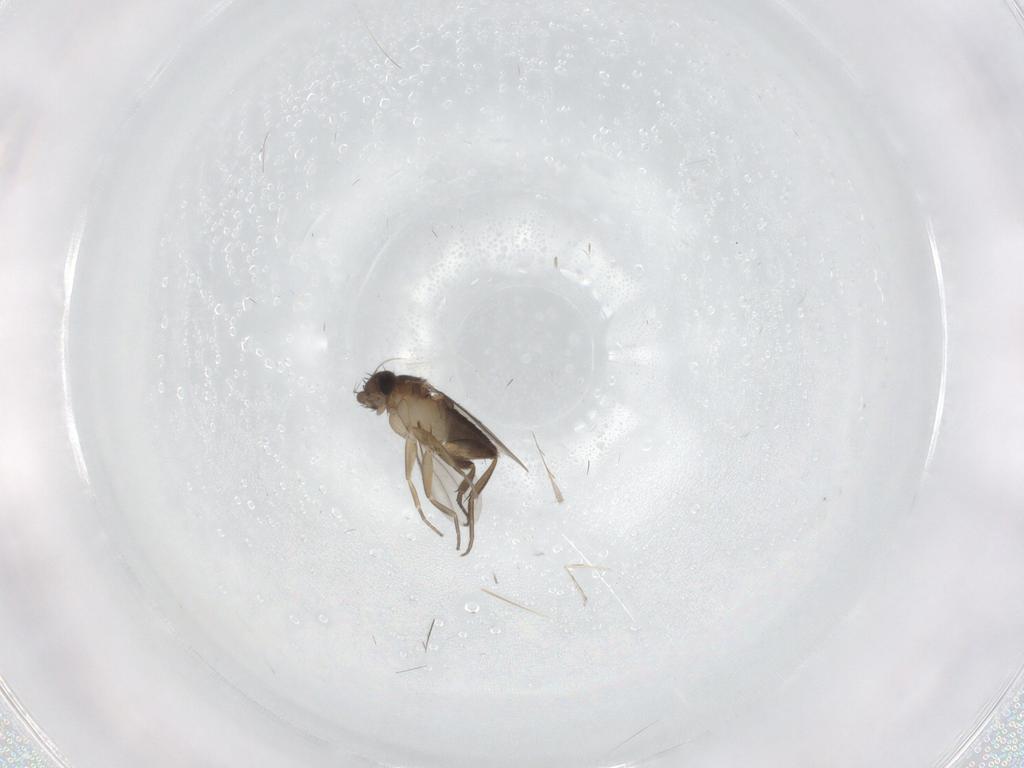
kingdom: Animalia
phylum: Arthropoda
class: Insecta
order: Diptera
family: Phoridae
